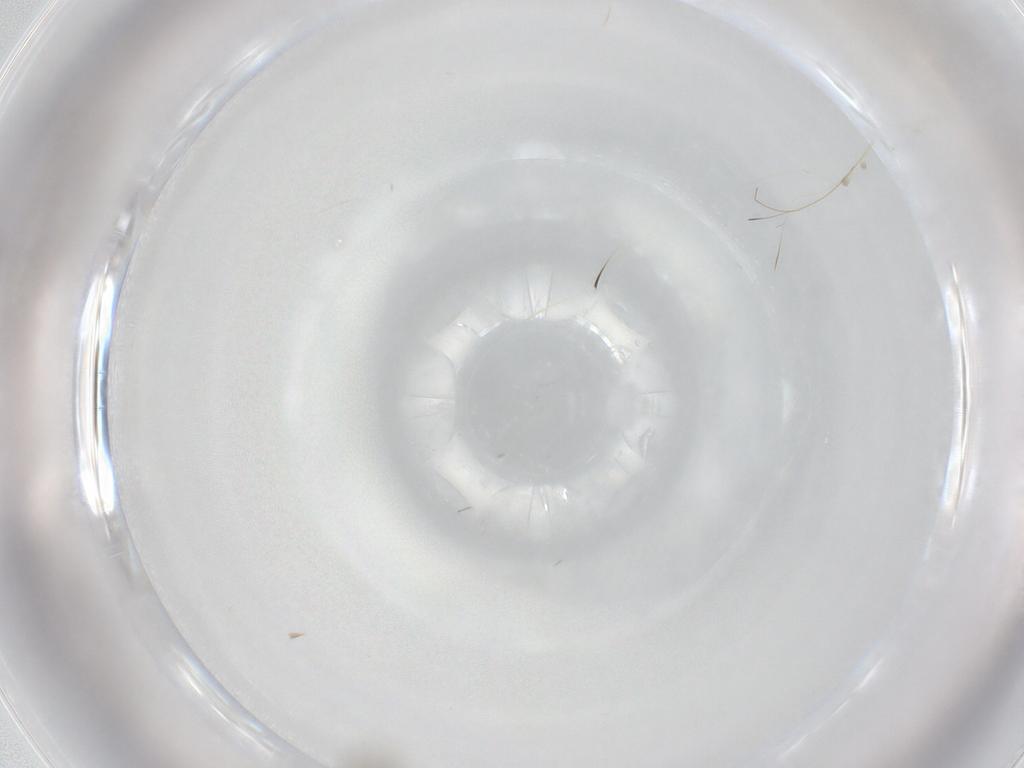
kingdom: Animalia
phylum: Arthropoda
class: Insecta
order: Diptera
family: Cecidomyiidae
